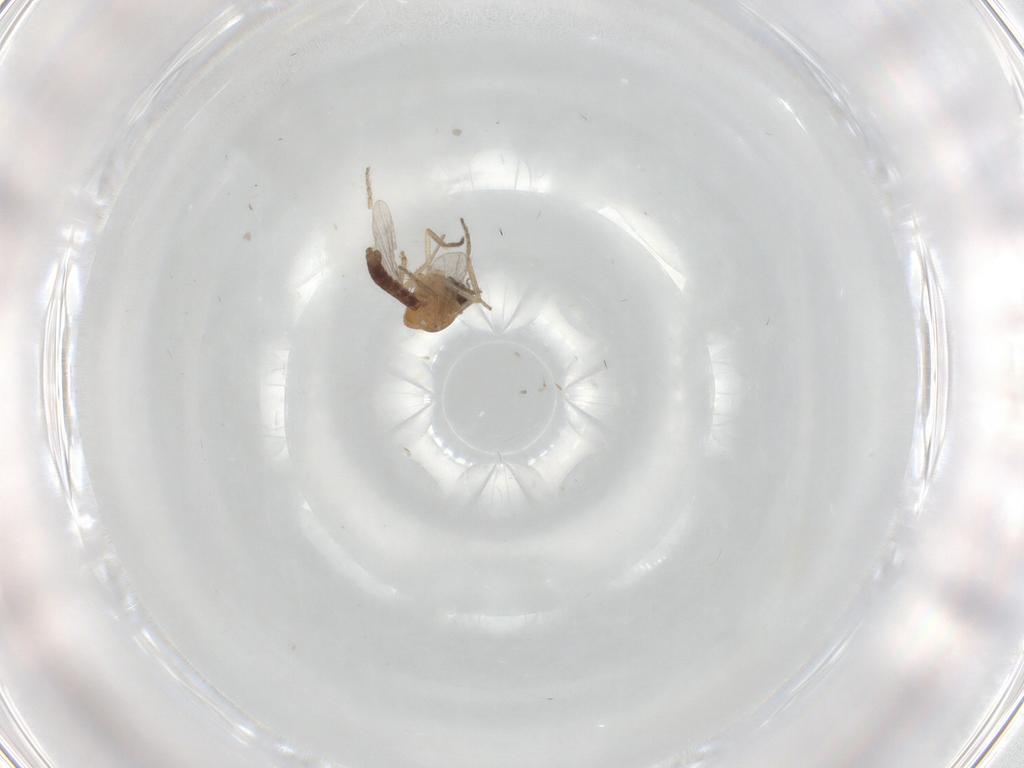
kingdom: Animalia
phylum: Arthropoda
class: Insecta
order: Diptera
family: Ceratopogonidae
